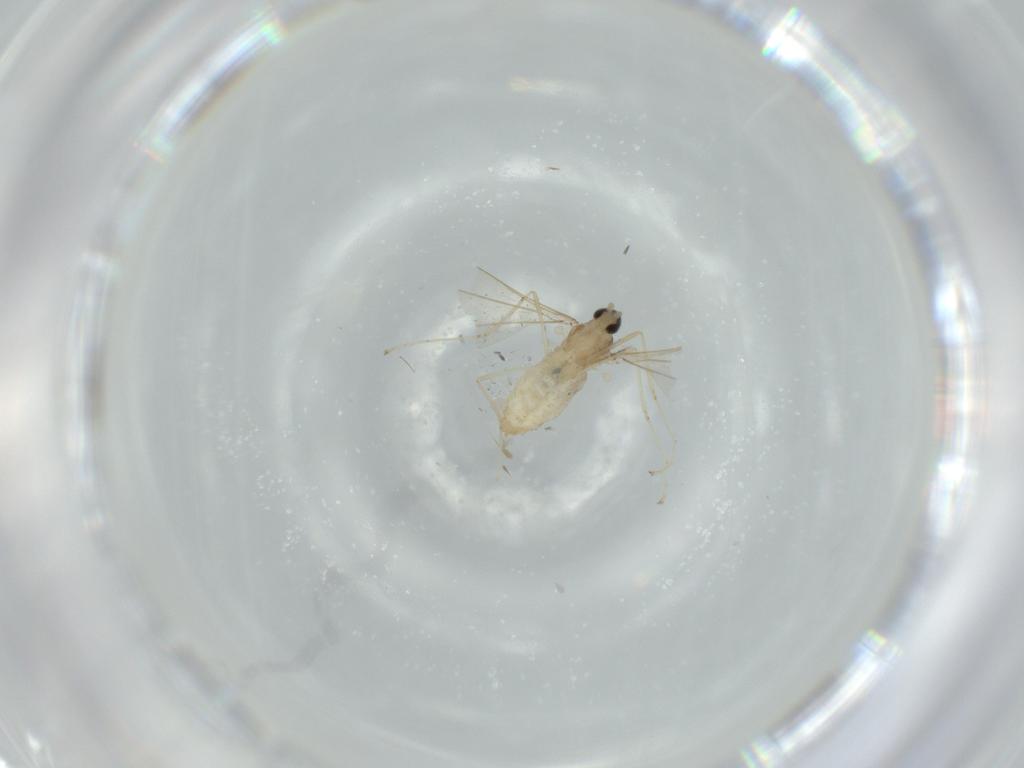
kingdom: Animalia
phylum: Arthropoda
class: Insecta
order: Diptera
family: Cecidomyiidae
